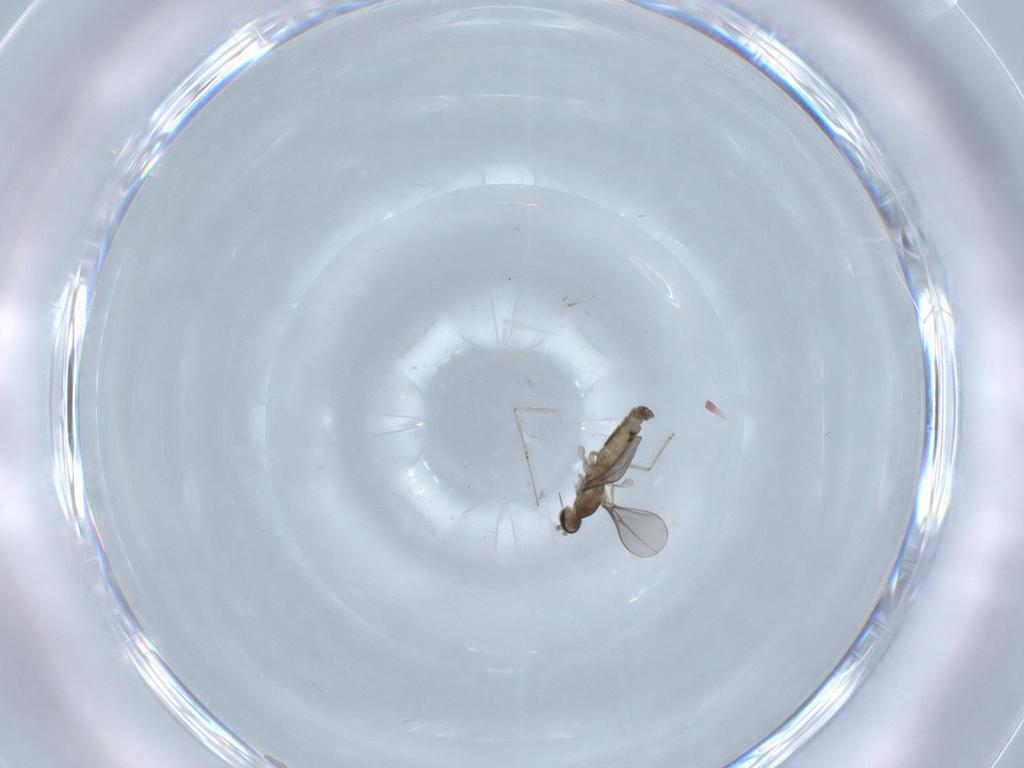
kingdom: Animalia
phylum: Arthropoda
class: Insecta
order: Diptera
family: Cecidomyiidae
